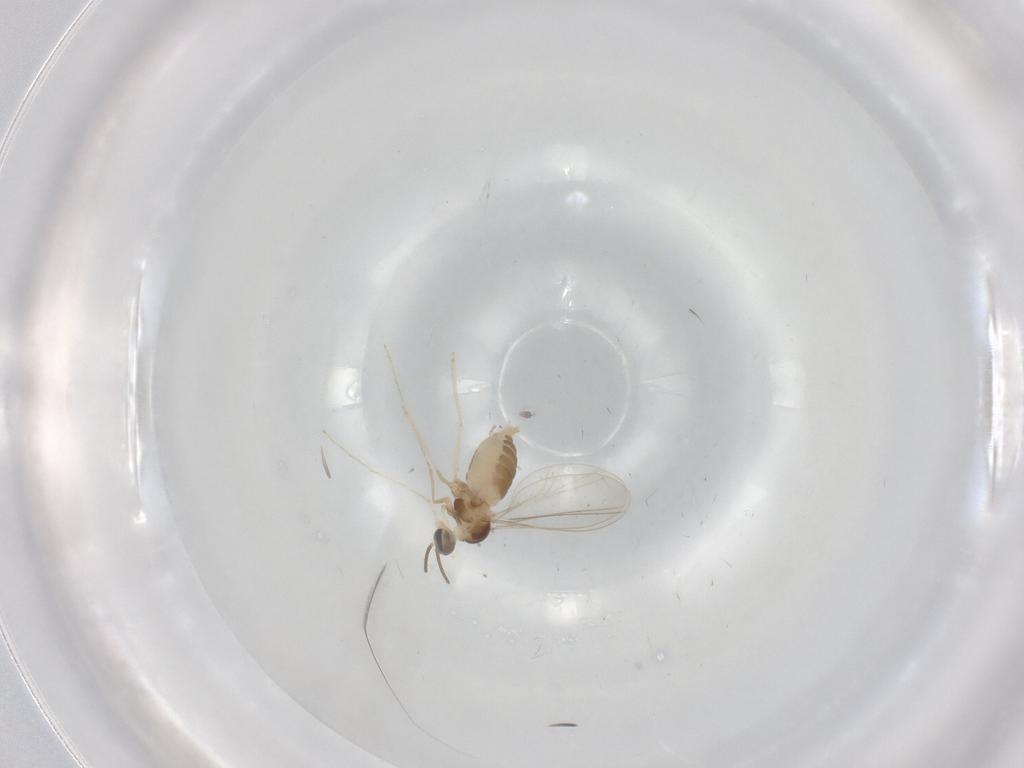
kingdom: Animalia
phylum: Arthropoda
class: Insecta
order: Diptera
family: Cecidomyiidae
